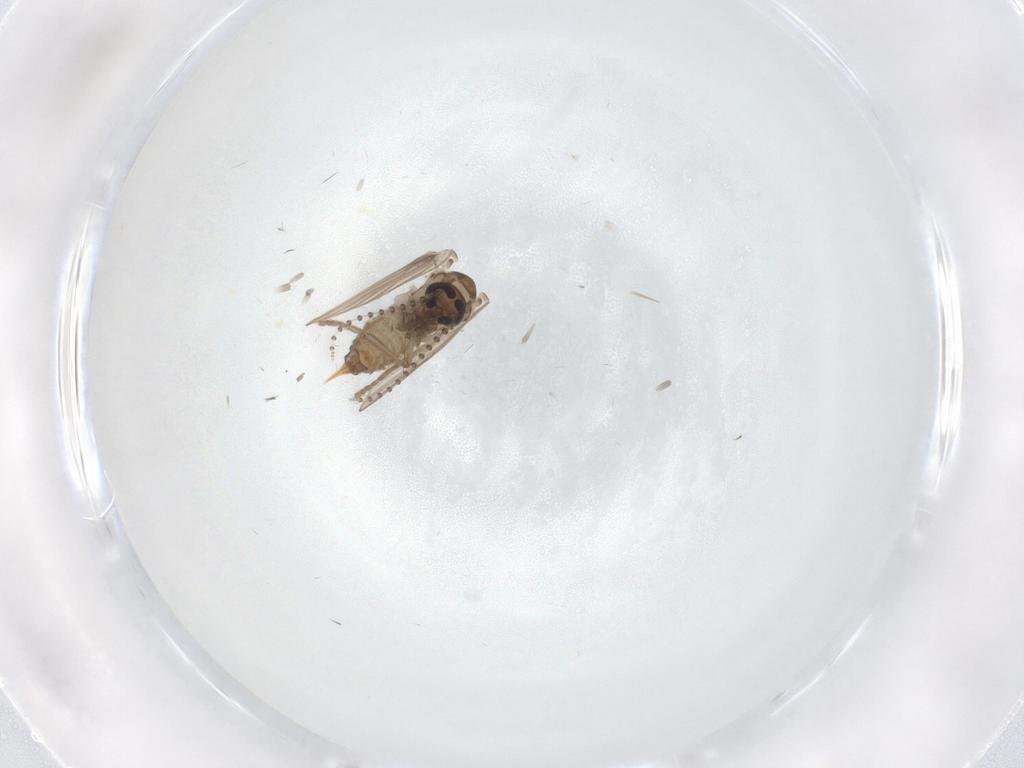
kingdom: Animalia
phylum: Arthropoda
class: Insecta
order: Diptera
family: Psychodidae
